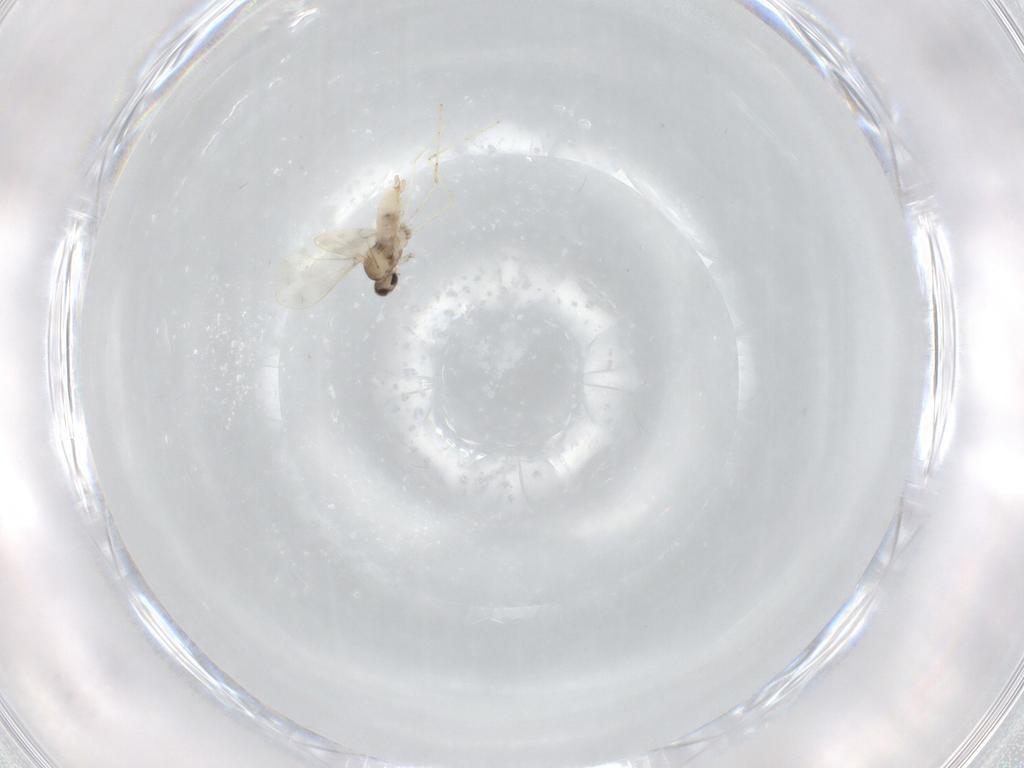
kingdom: Animalia
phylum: Arthropoda
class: Insecta
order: Diptera
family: Cecidomyiidae
